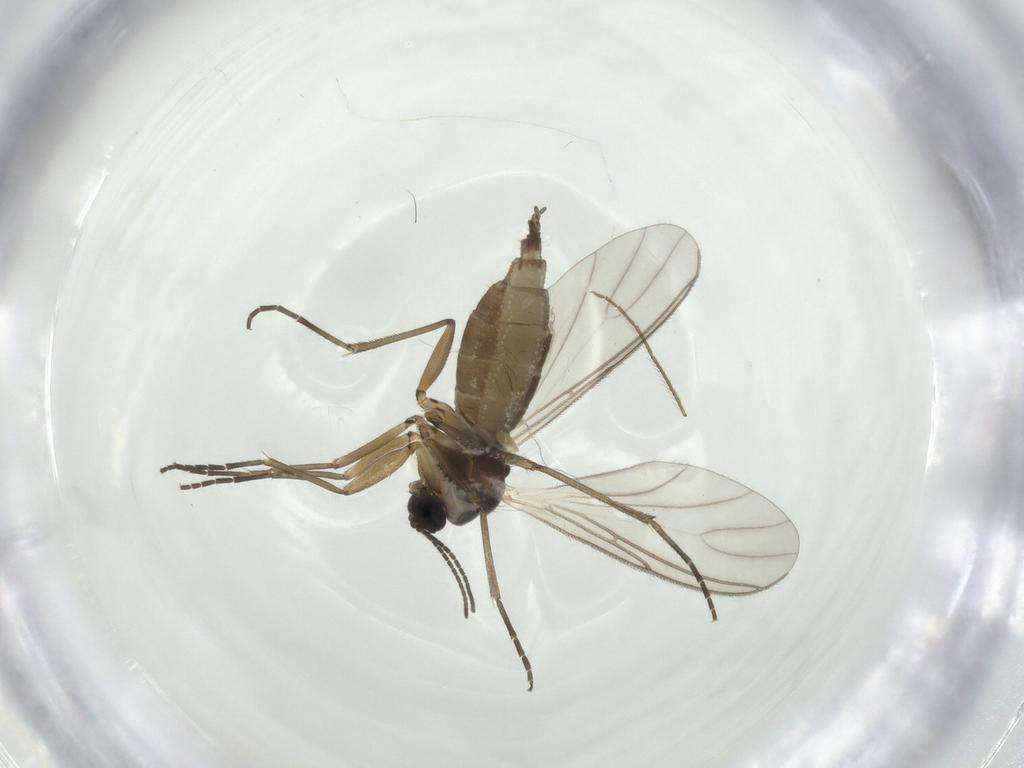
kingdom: Animalia
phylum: Arthropoda
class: Insecta
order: Diptera
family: Chironomidae
